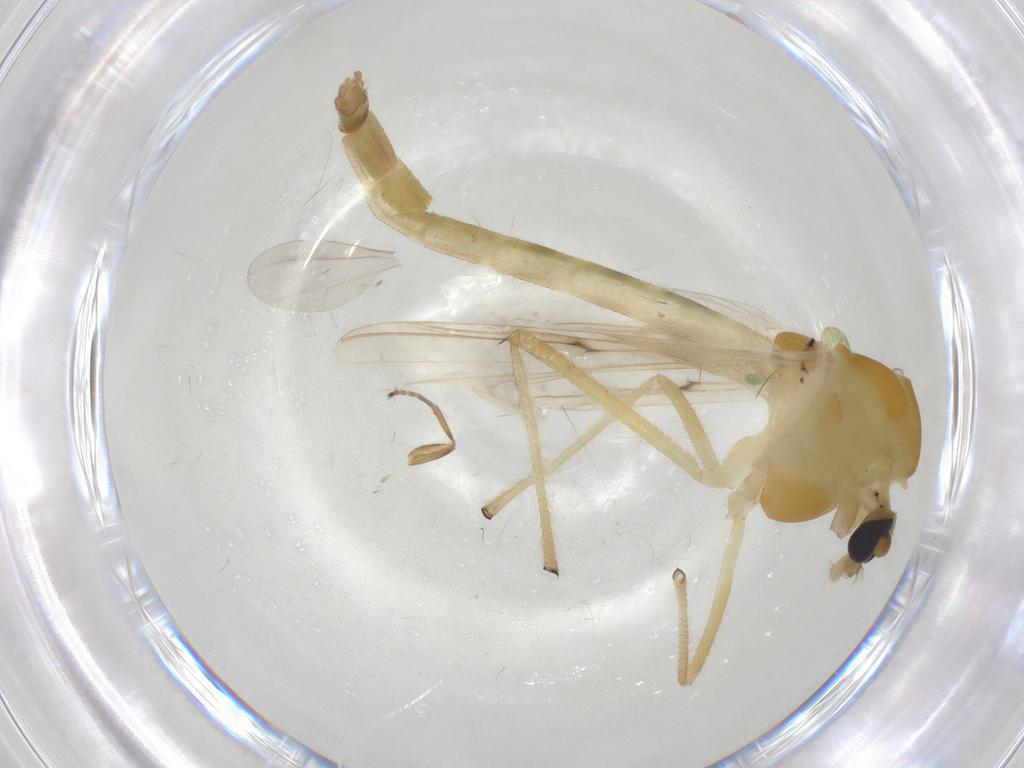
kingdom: Animalia
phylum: Arthropoda
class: Insecta
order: Diptera
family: Chironomidae
